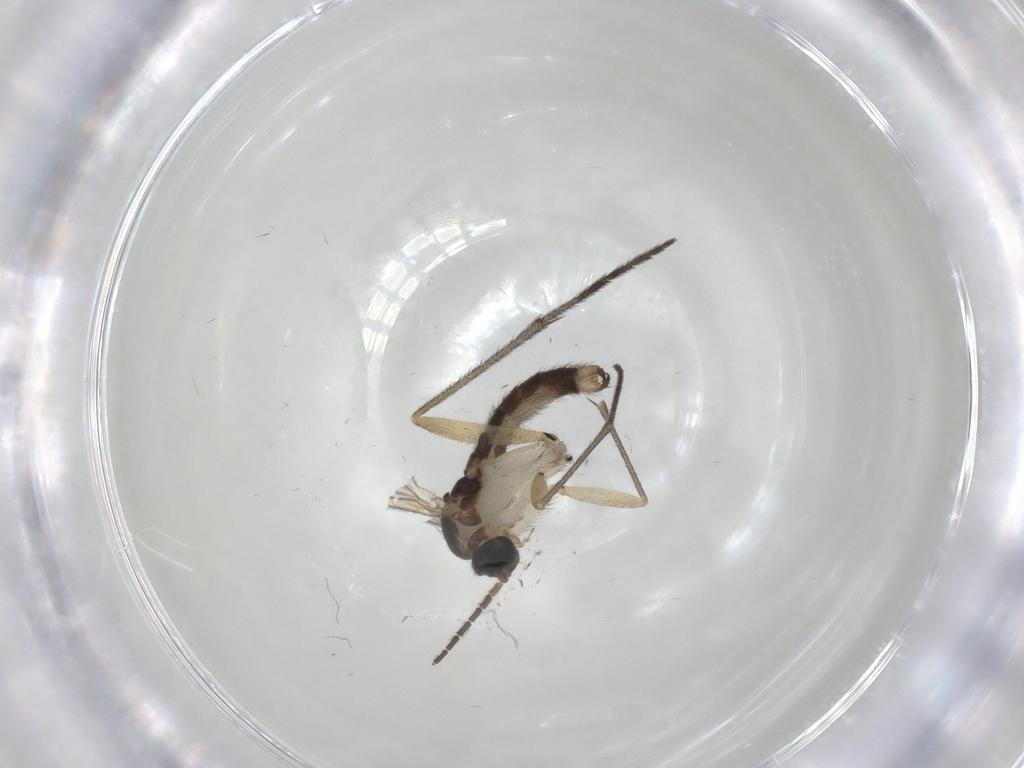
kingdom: Animalia
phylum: Arthropoda
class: Insecta
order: Diptera
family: Sciaridae
